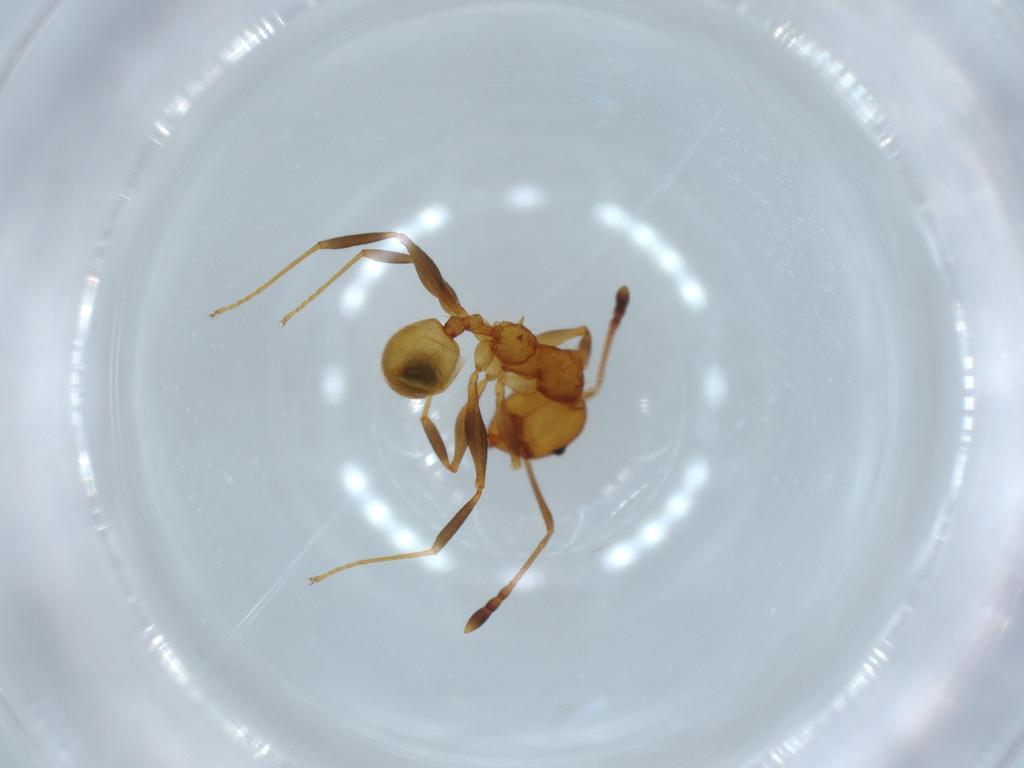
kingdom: Animalia
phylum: Arthropoda
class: Insecta
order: Hymenoptera
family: Formicidae
